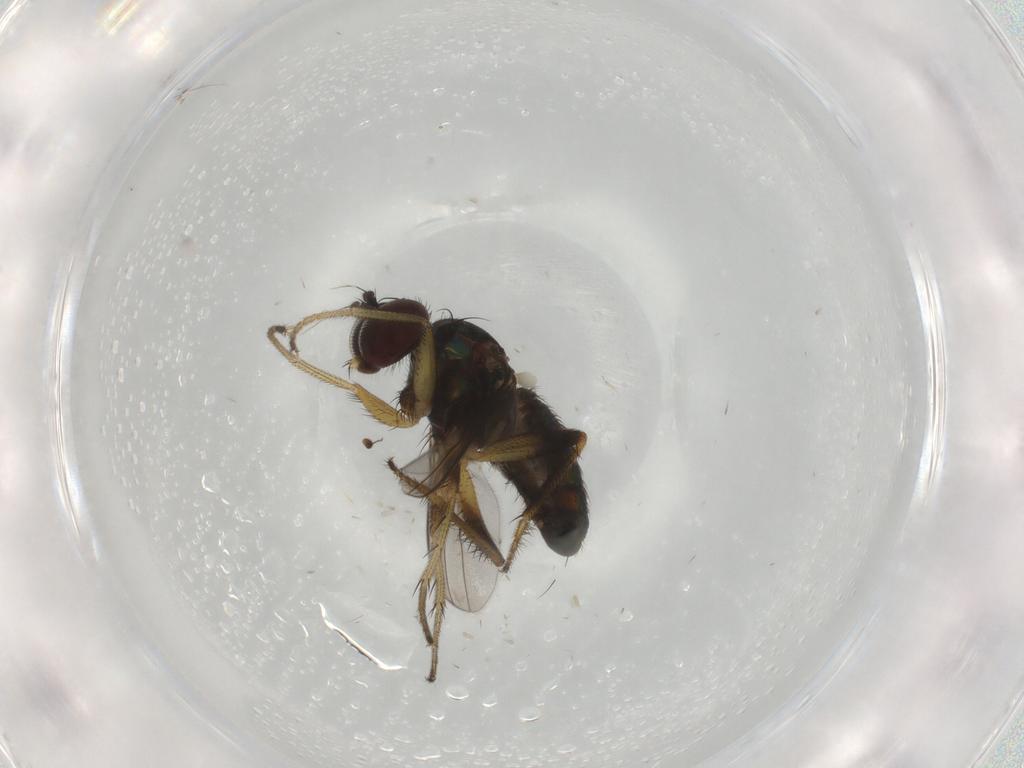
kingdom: Animalia
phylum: Arthropoda
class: Insecta
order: Diptera
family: Dolichopodidae
